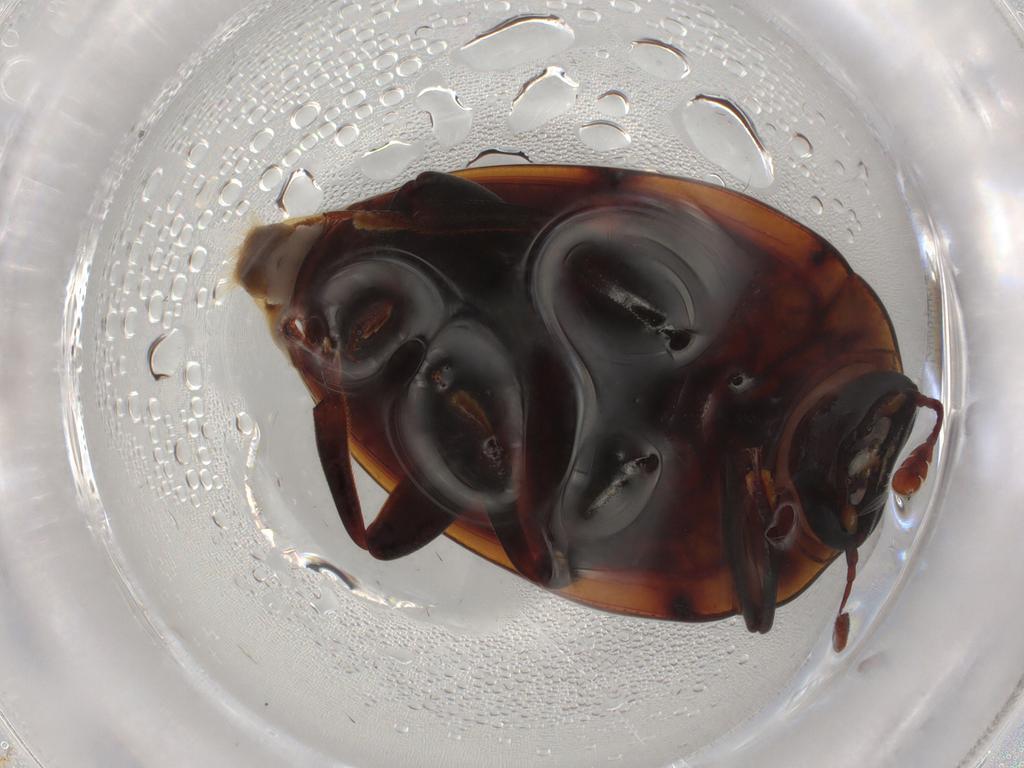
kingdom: Animalia
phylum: Arthropoda
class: Insecta
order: Coleoptera
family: Zopheridae
